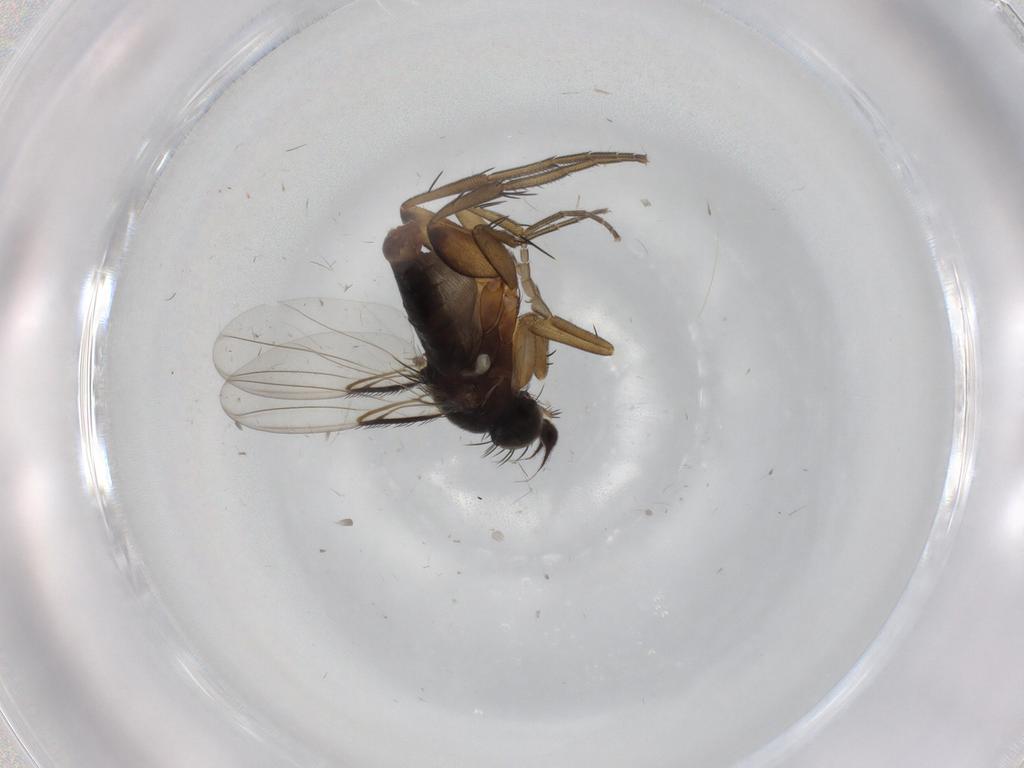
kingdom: Animalia
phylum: Arthropoda
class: Insecta
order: Diptera
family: Phoridae
